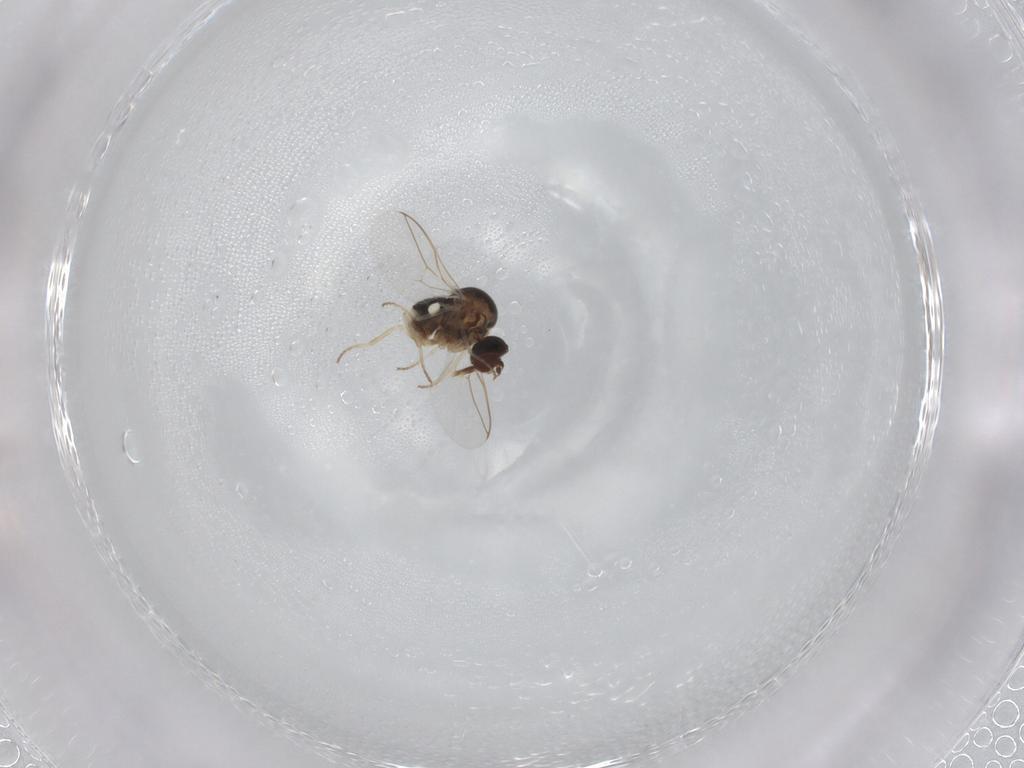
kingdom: Animalia
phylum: Arthropoda
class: Insecta
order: Diptera
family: Bombyliidae
